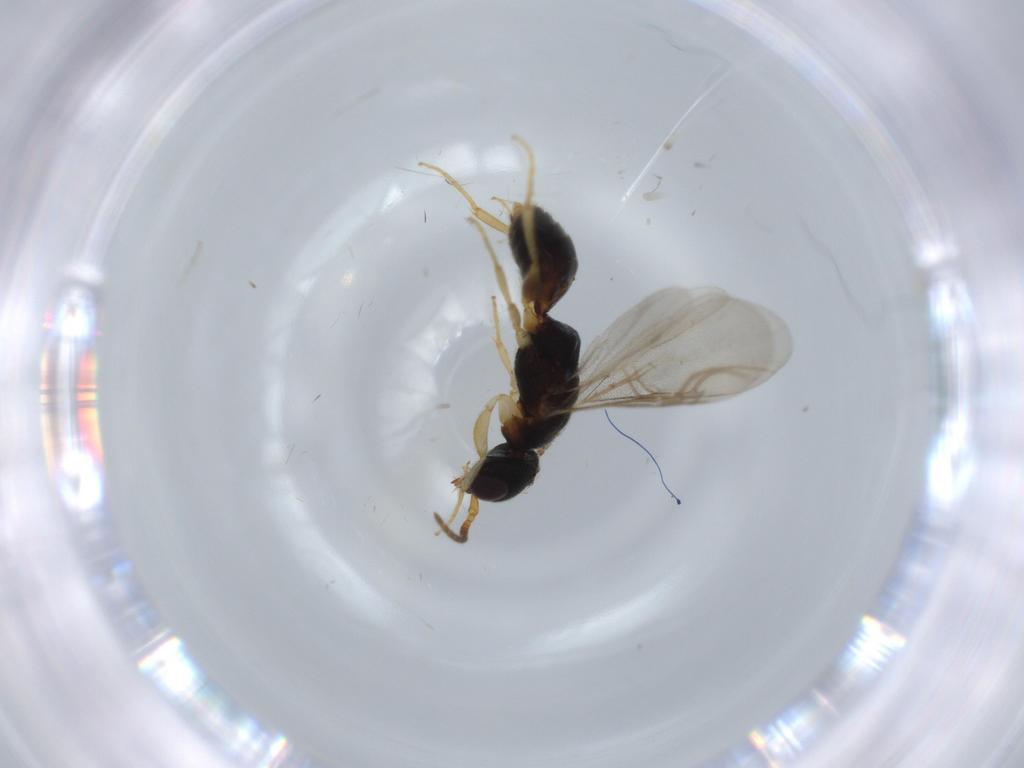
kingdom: Animalia
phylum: Arthropoda
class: Insecta
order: Hymenoptera
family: Bethylidae
